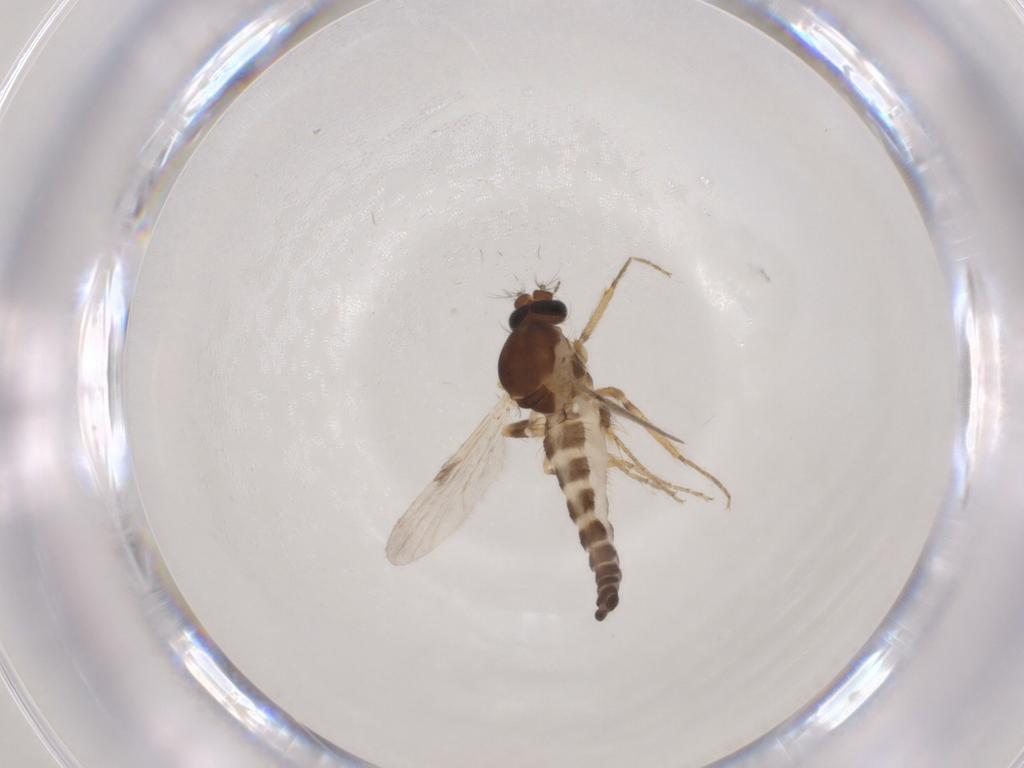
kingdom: Animalia
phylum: Arthropoda
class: Insecta
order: Diptera
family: Ceratopogonidae
